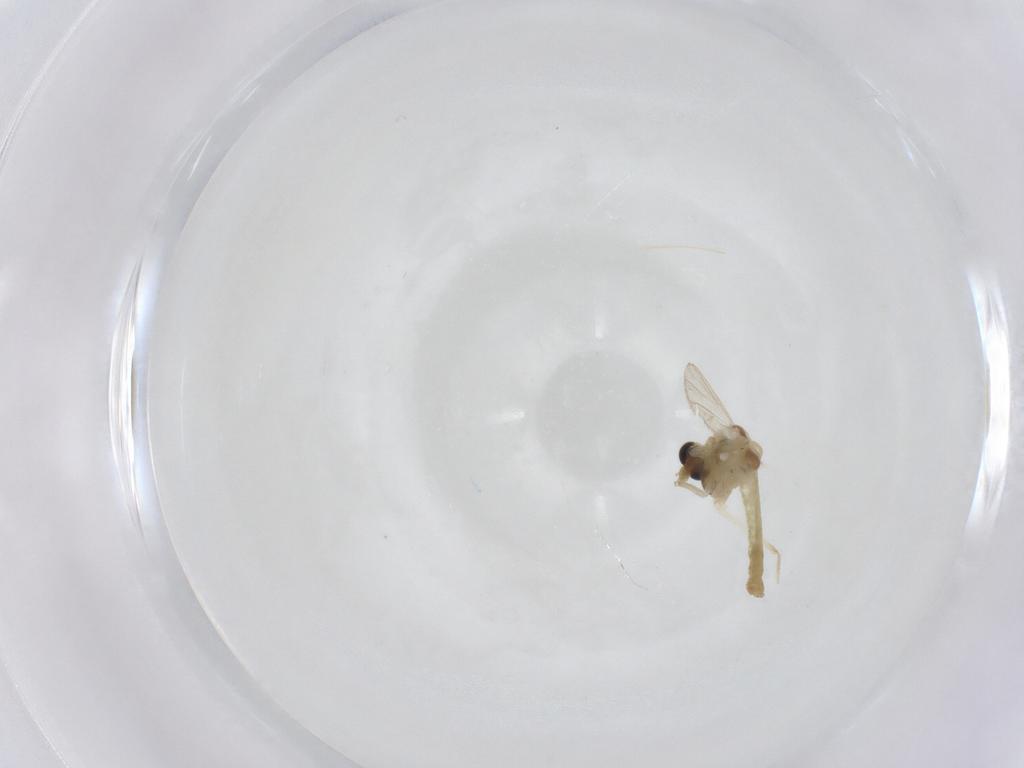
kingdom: Animalia
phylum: Arthropoda
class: Insecta
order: Diptera
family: Chironomidae
